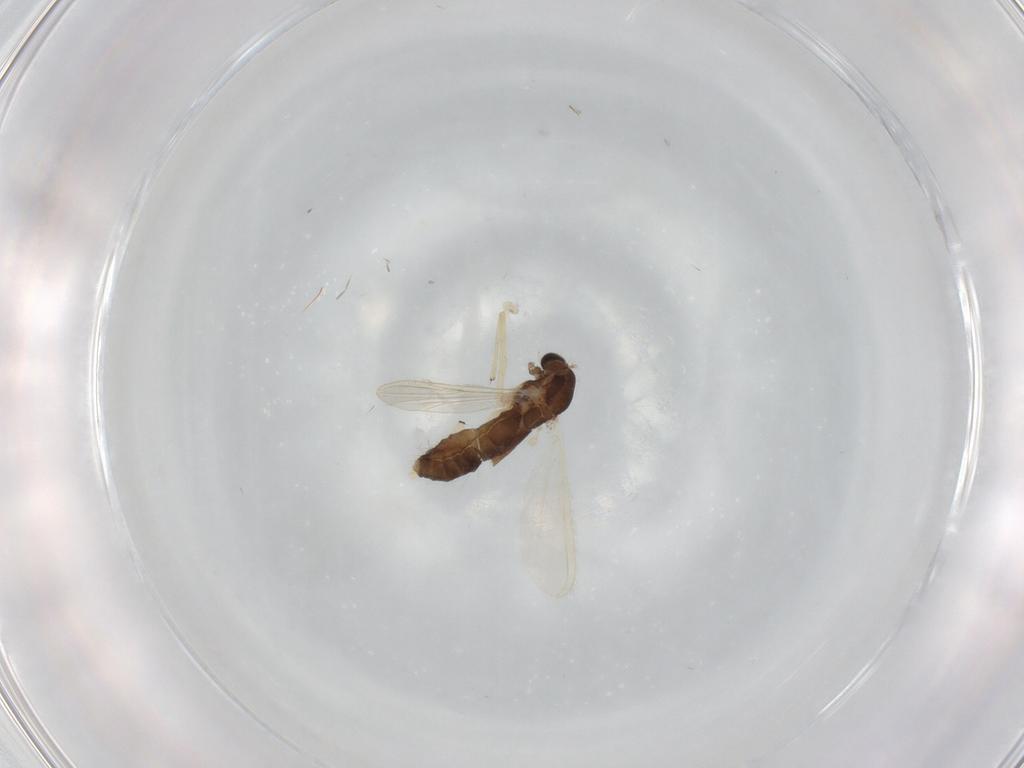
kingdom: Animalia
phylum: Arthropoda
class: Insecta
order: Diptera
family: Chironomidae
